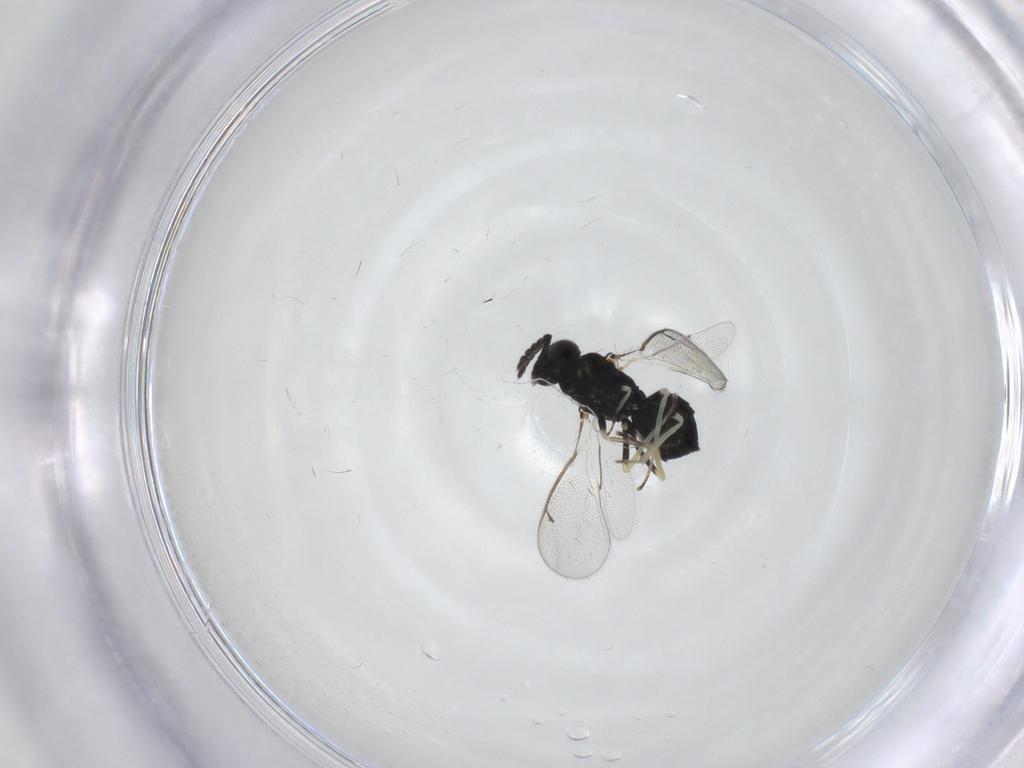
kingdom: Animalia
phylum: Arthropoda
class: Insecta
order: Hymenoptera
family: Eulophidae
